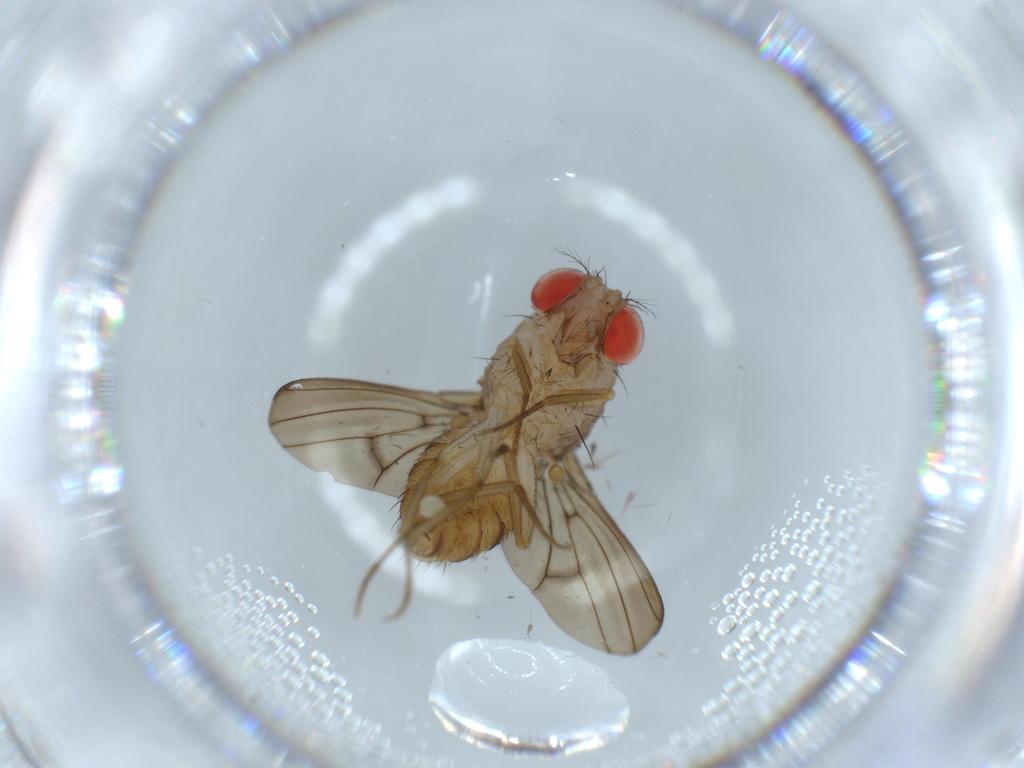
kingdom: Animalia
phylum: Arthropoda
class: Insecta
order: Diptera
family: Drosophilidae
